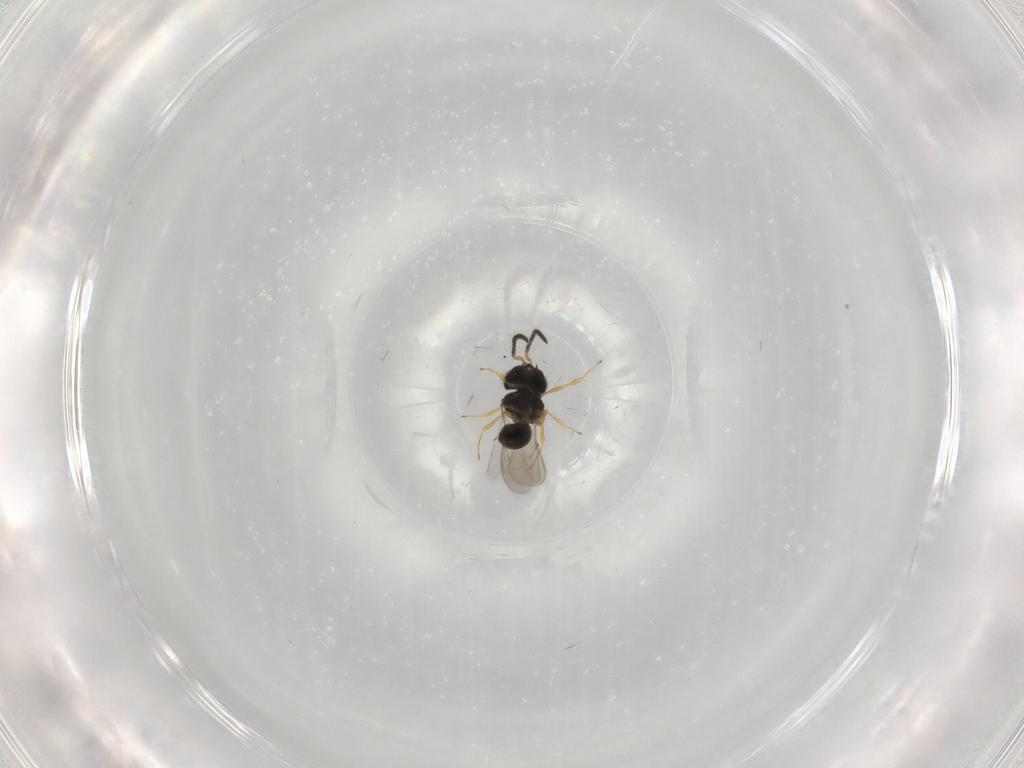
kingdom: Animalia
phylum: Arthropoda
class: Insecta
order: Hymenoptera
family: Scelionidae
